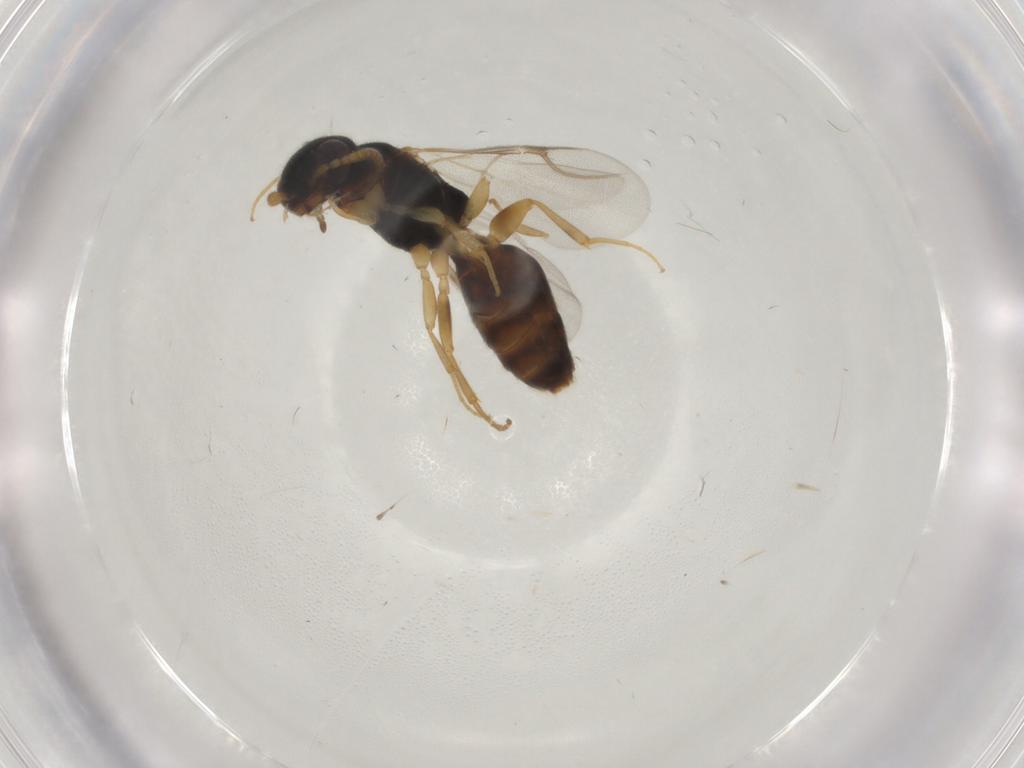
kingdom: Animalia
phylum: Arthropoda
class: Insecta
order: Hymenoptera
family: Bethylidae
